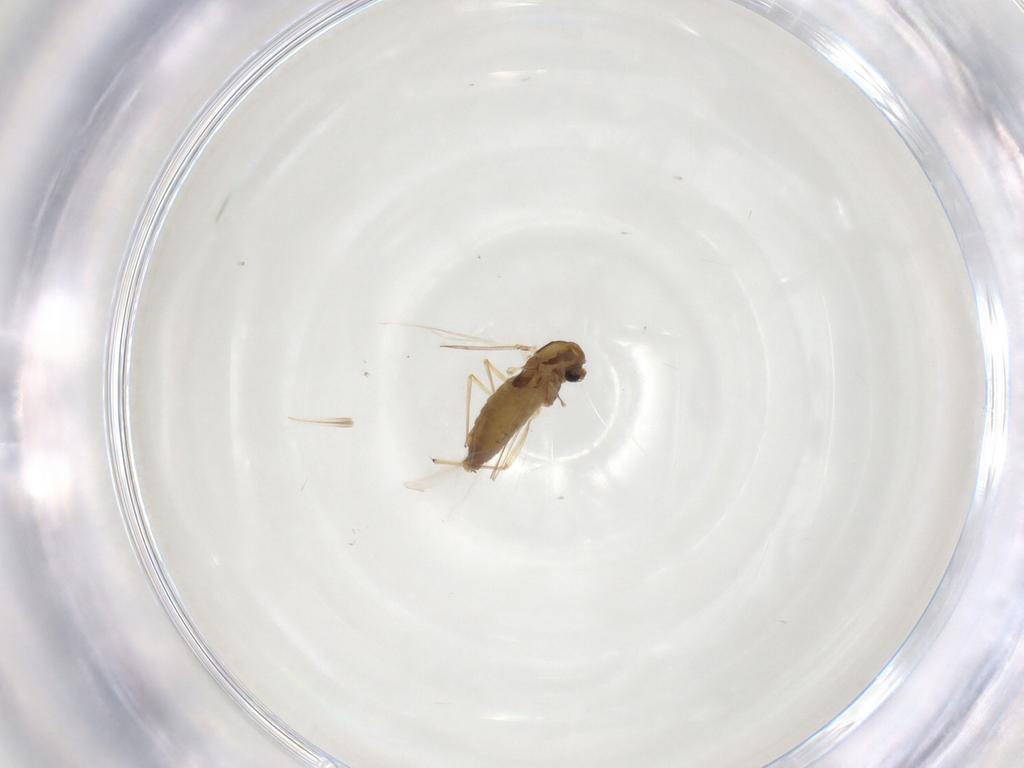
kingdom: Animalia
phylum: Arthropoda
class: Insecta
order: Diptera
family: Chironomidae
